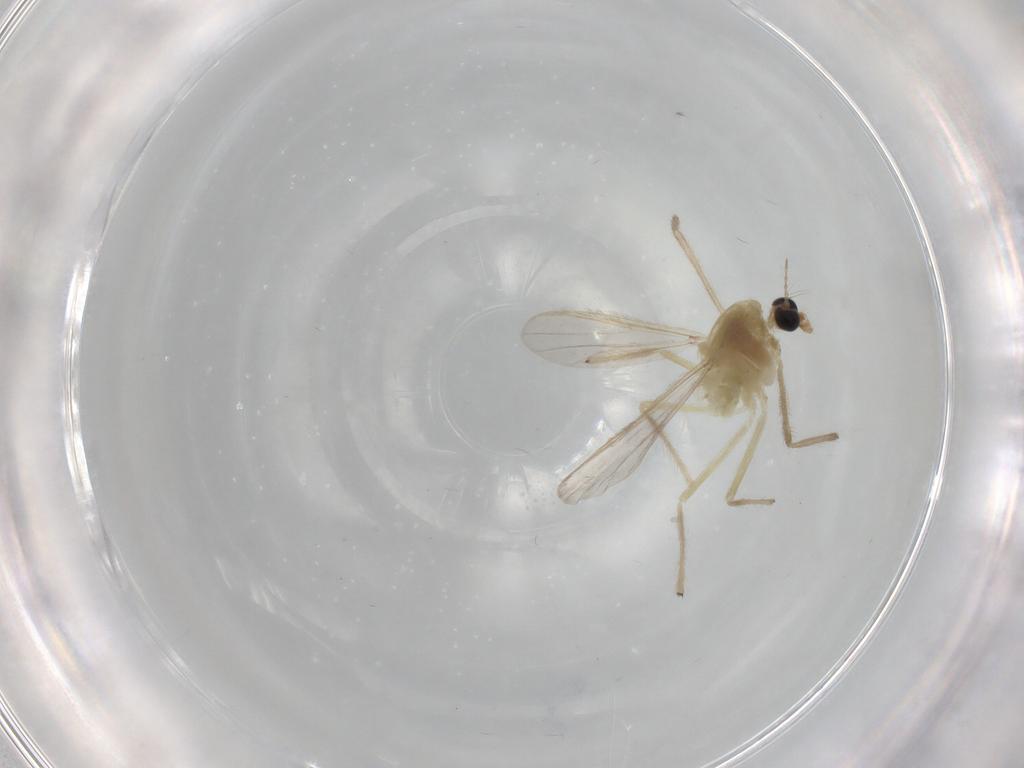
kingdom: Animalia
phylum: Arthropoda
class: Insecta
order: Diptera
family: Chironomidae
